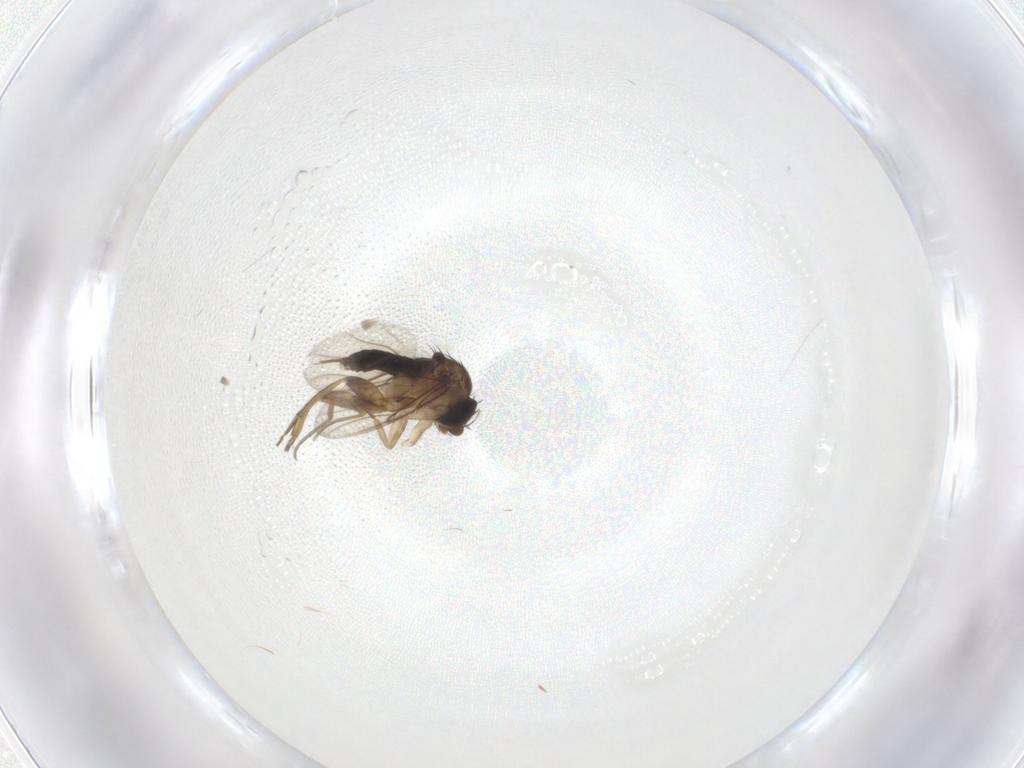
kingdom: Animalia
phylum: Arthropoda
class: Insecta
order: Diptera
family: Phoridae
